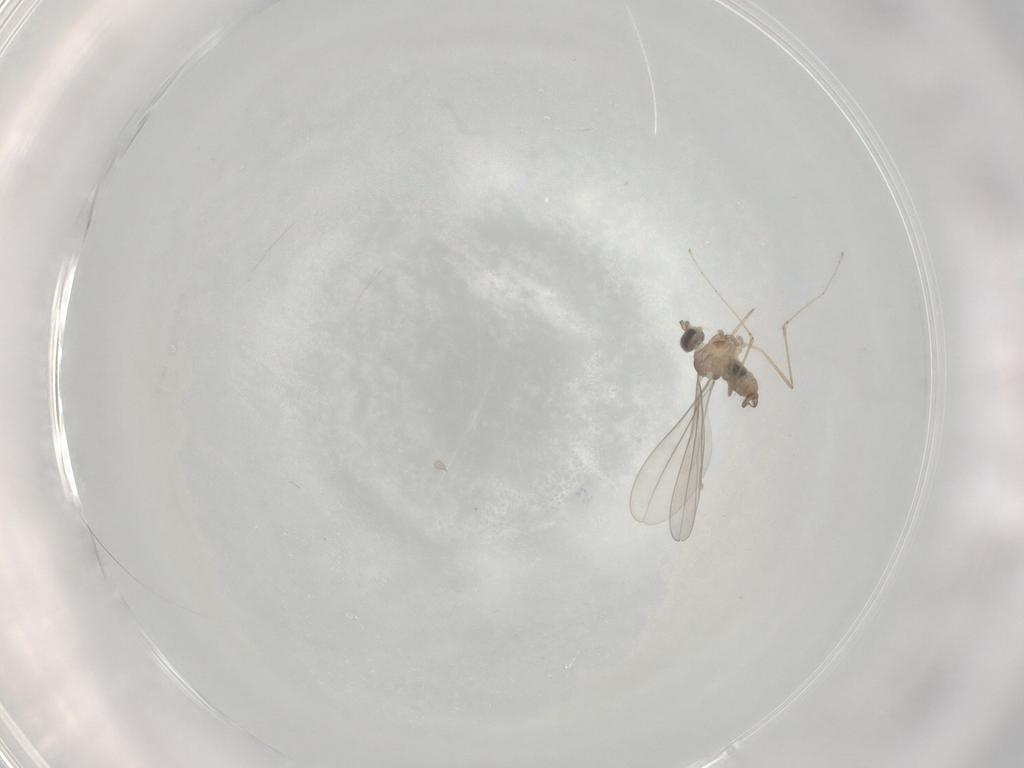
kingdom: Animalia
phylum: Arthropoda
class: Insecta
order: Diptera
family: Cecidomyiidae
